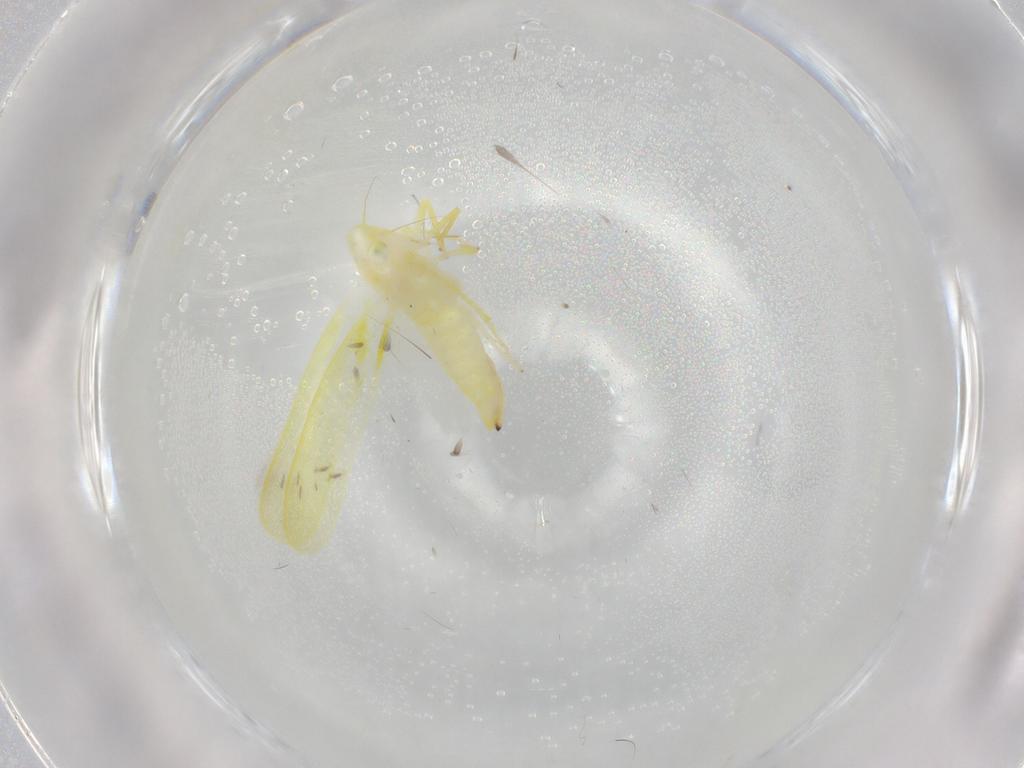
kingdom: Animalia
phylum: Arthropoda
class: Insecta
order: Hemiptera
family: Cicadellidae
